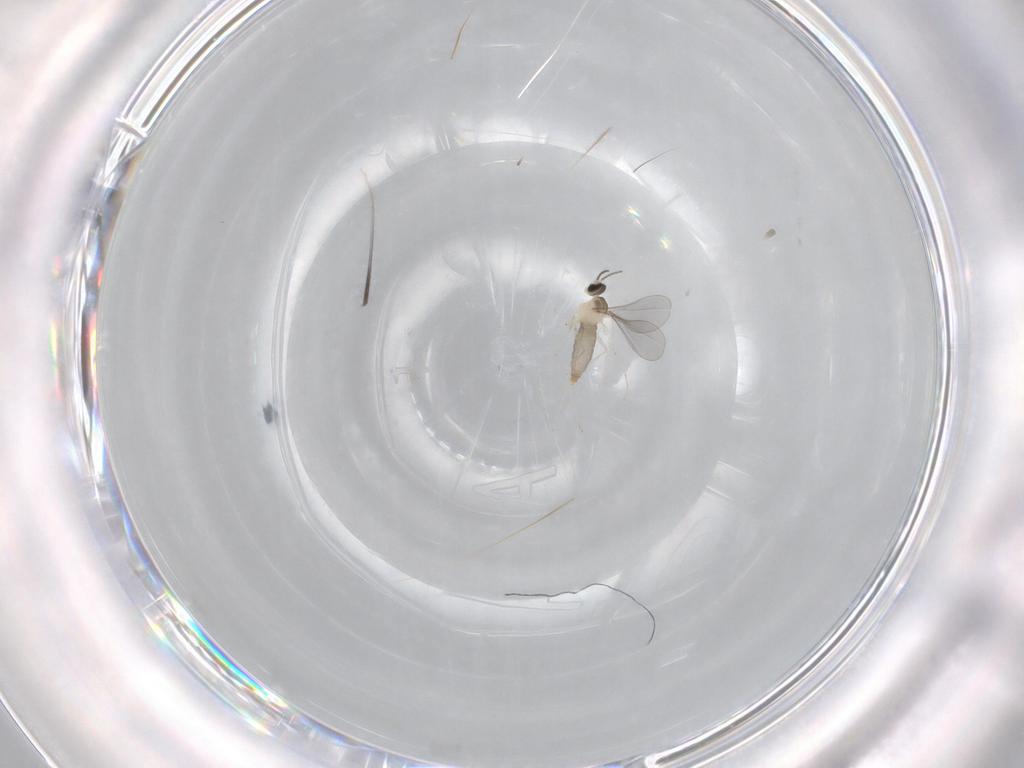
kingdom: Animalia
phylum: Arthropoda
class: Insecta
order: Diptera
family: Cecidomyiidae
